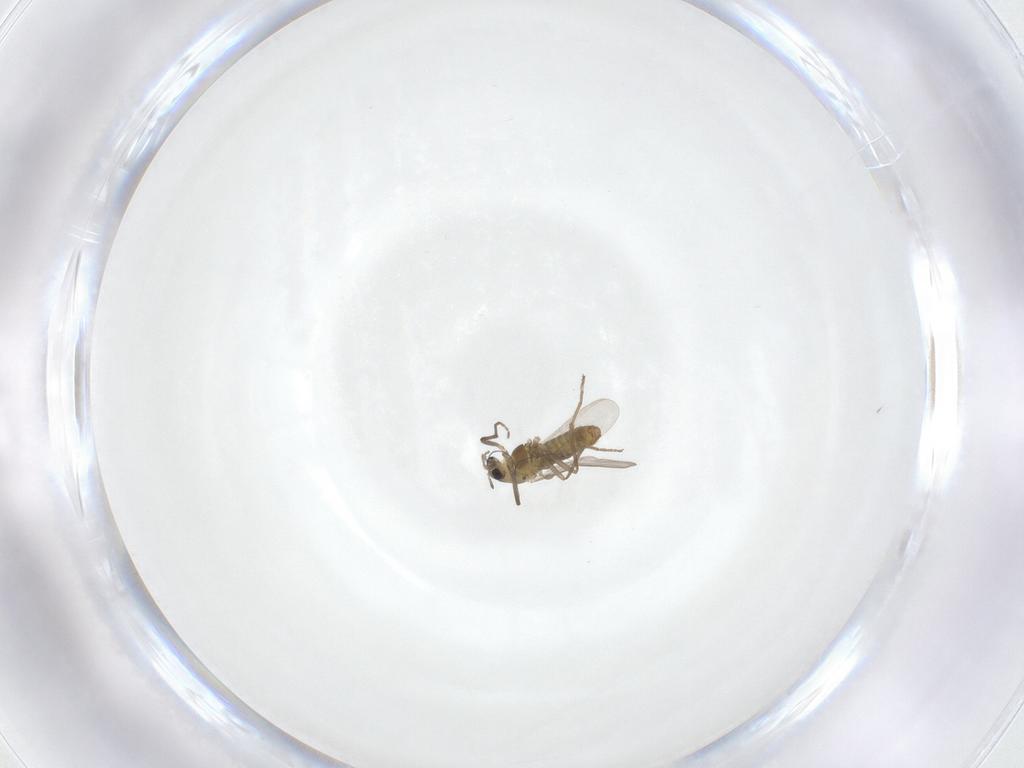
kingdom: Animalia
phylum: Arthropoda
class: Insecta
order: Diptera
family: Chironomidae
